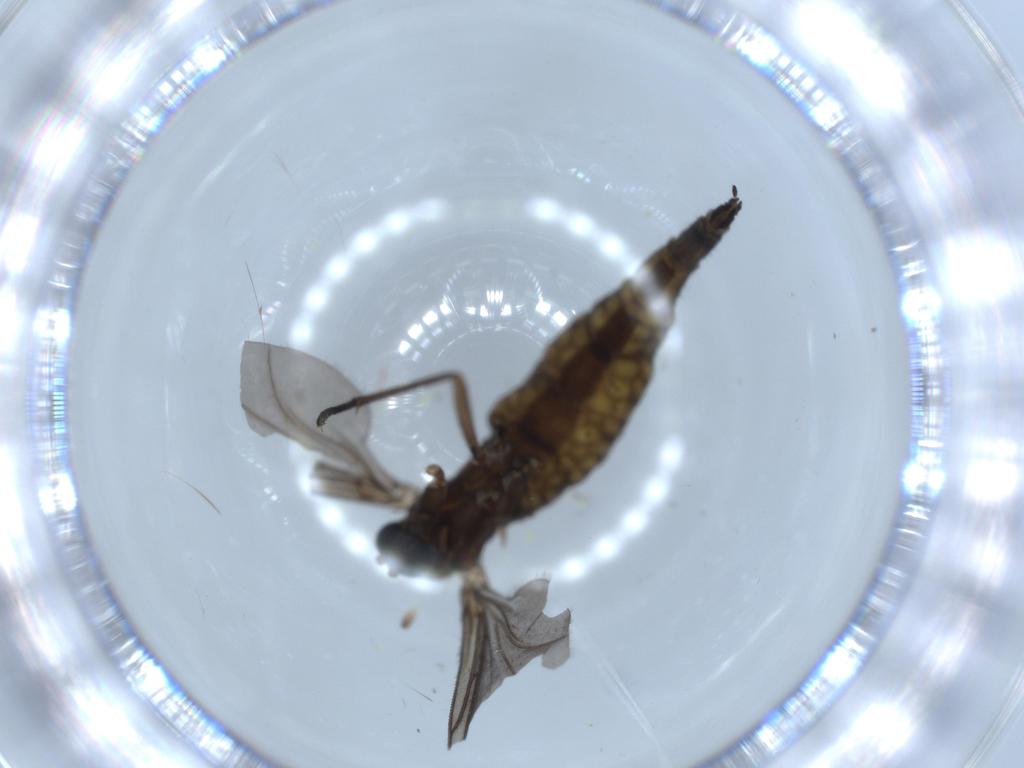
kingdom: Animalia
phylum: Arthropoda
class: Insecta
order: Diptera
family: Sciaridae
